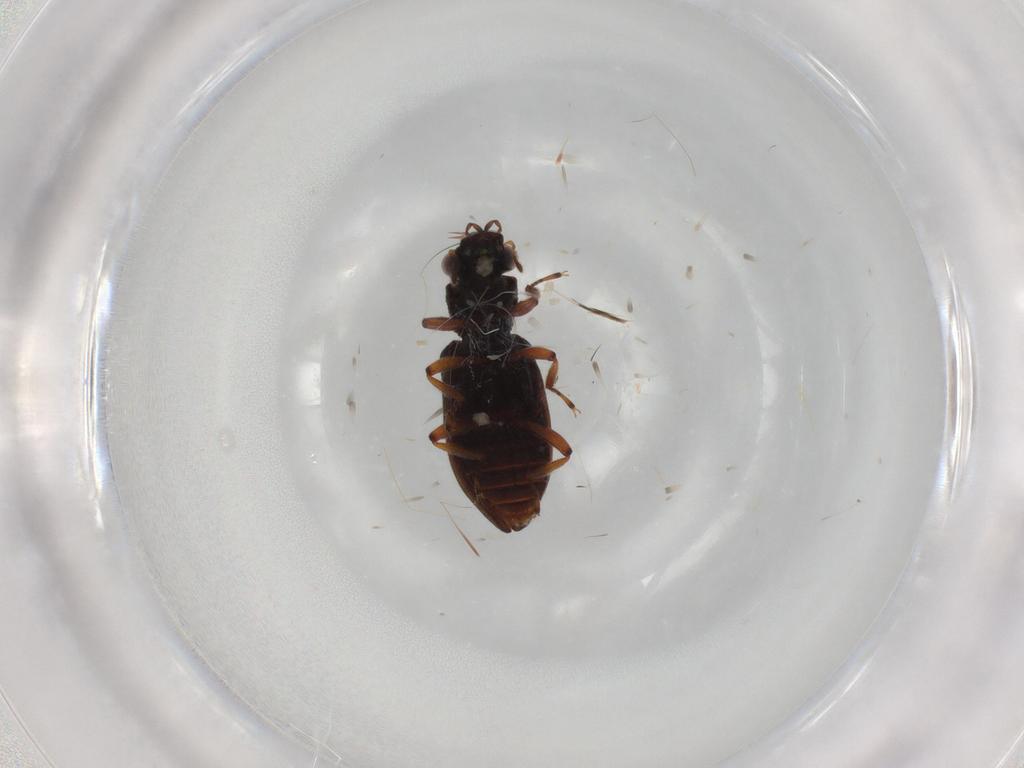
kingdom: Animalia
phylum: Arthropoda
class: Insecta
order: Coleoptera
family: Hydrophilidae
